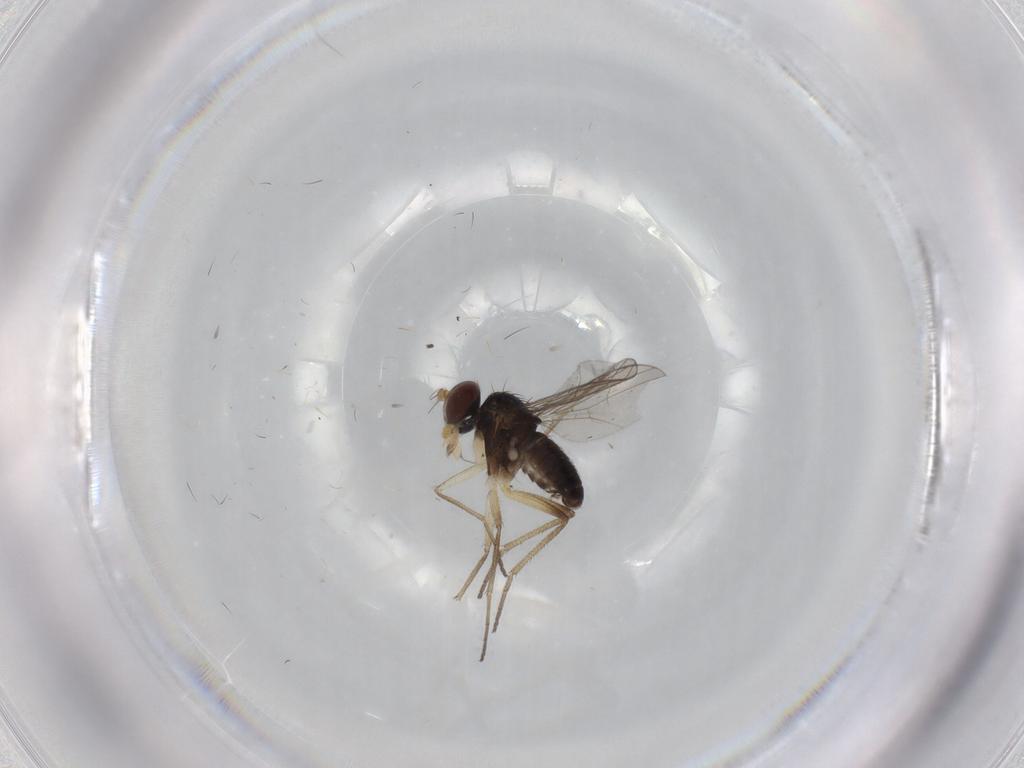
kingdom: Animalia
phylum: Arthropoda
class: Insecta
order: Diptera
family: Dolichopodidae
